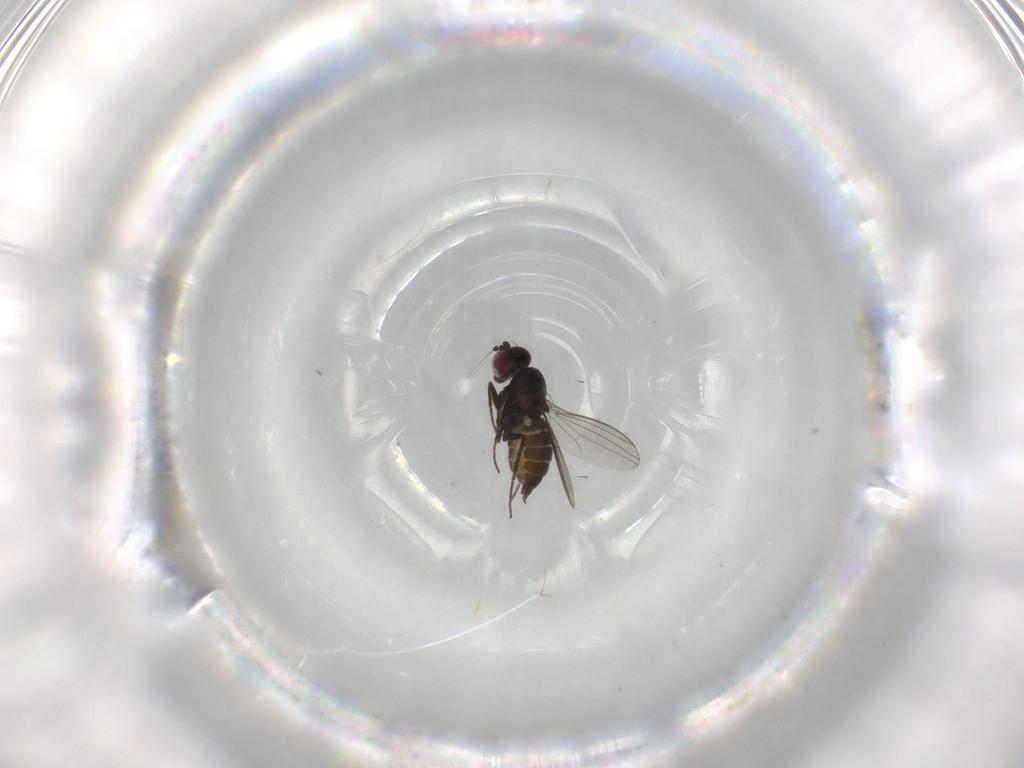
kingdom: Animalia
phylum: Arthropoda
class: Insecta
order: Diptera
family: Dolichopodidae
